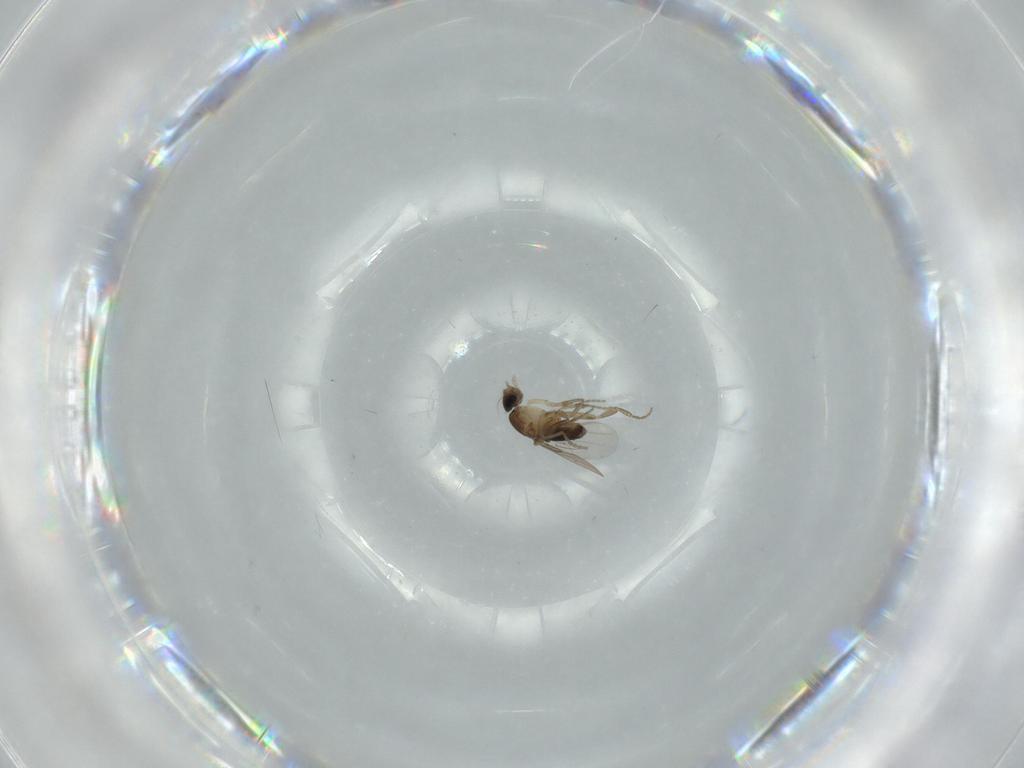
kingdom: Animalia
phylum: Arthropoda
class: Insecta
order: Diptera
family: Phoridae
